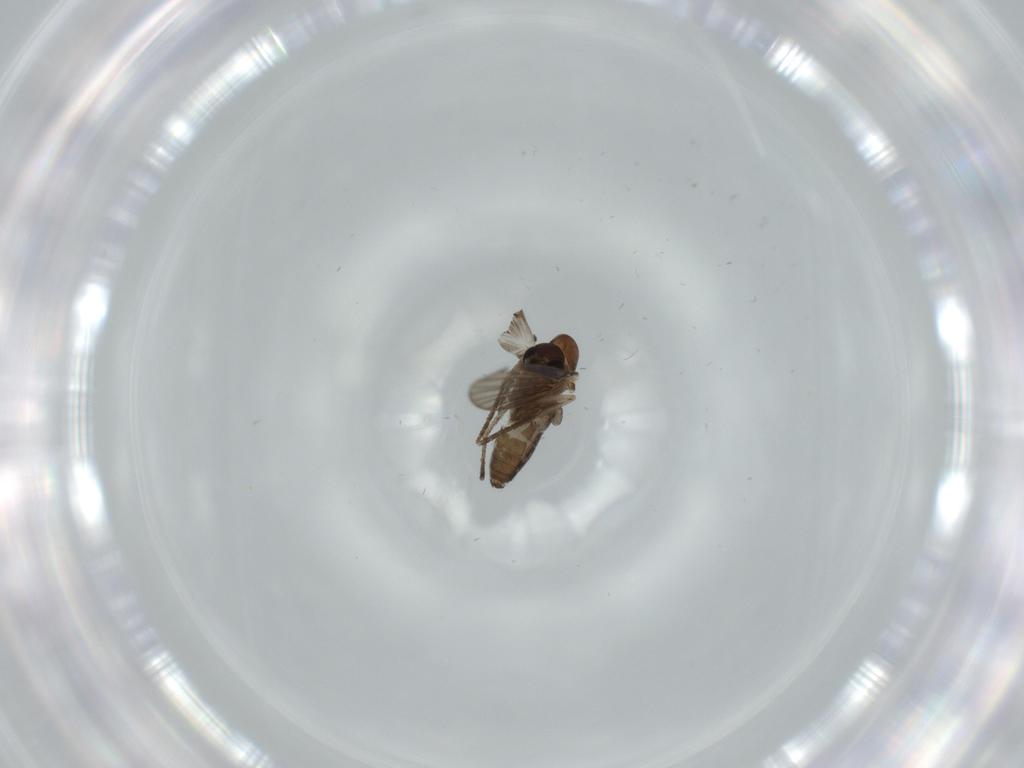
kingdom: Animalia
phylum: Arthropoda
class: Insecta
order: Diptera
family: Psychodidae
